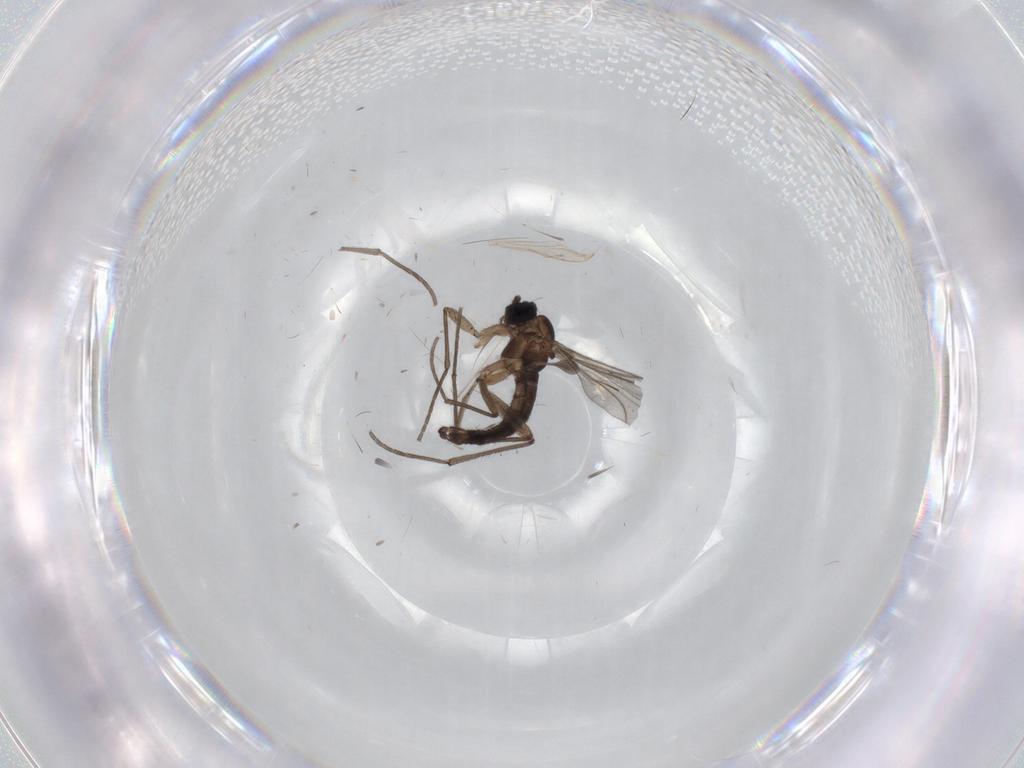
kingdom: Animalia
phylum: Arthropoda
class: Insecta
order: Diptera
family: Sciaridae
